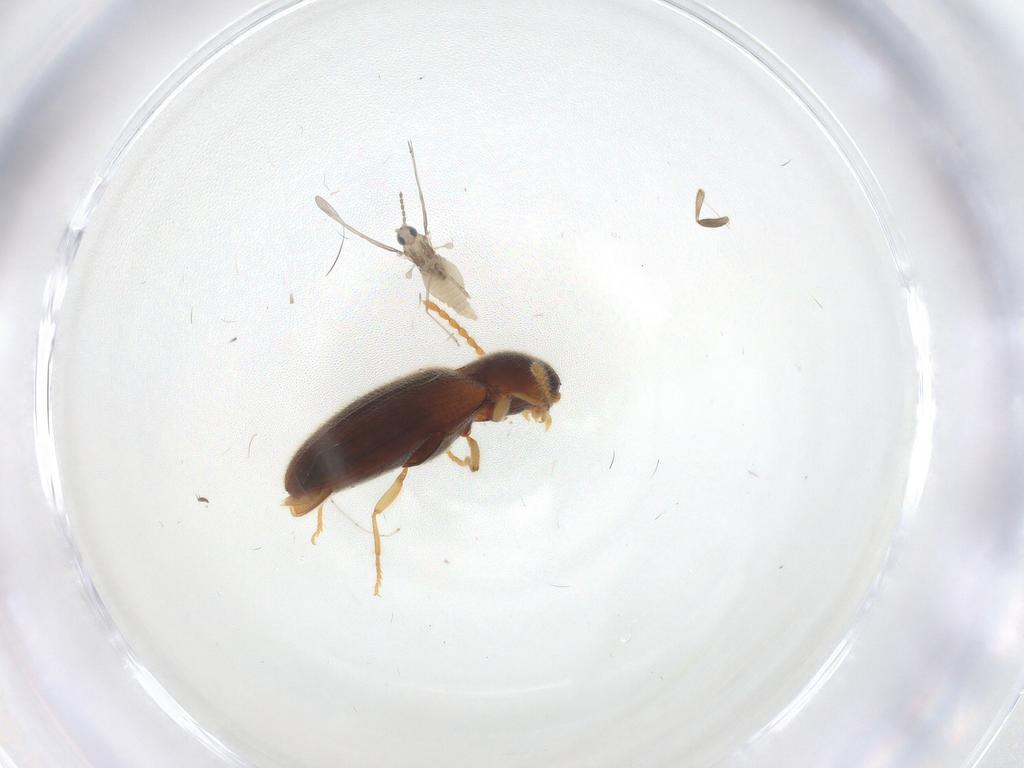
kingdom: Animalia
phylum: Arthropoda
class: Insecta
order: Coleoptera
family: Elateridae
